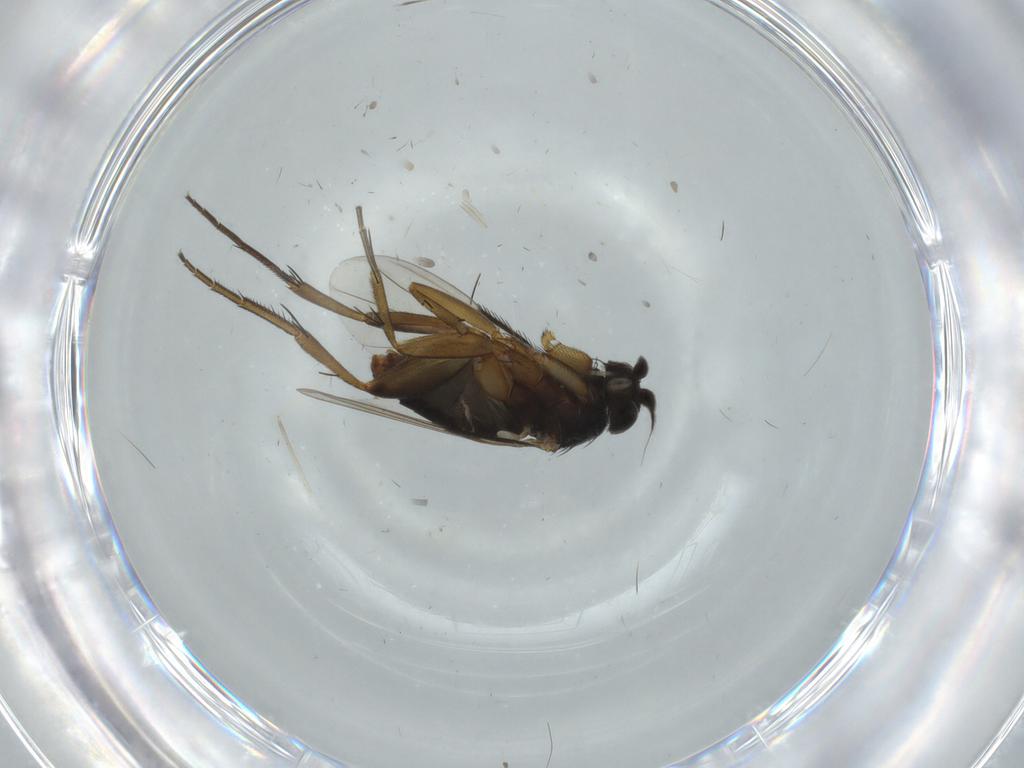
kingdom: Animalia
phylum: Arthropoda
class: Insecta
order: Diptera
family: Cecidomyiidae
